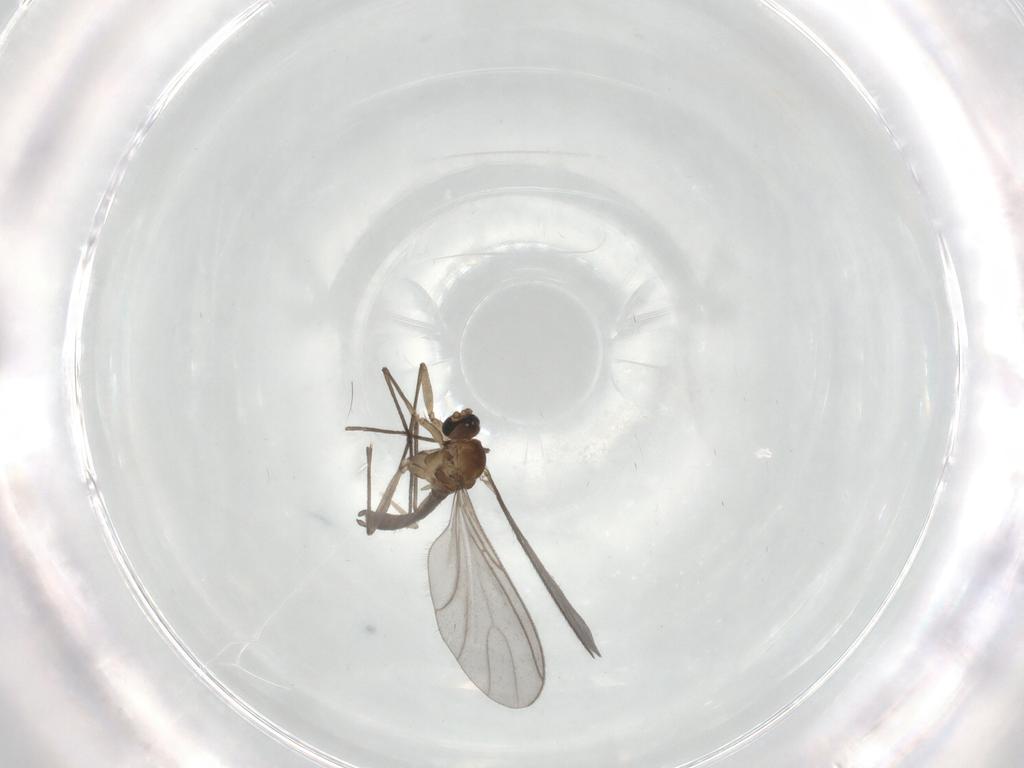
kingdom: Animalia
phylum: Arthropoda
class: Insecta
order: Diptera
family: Sciaridae
